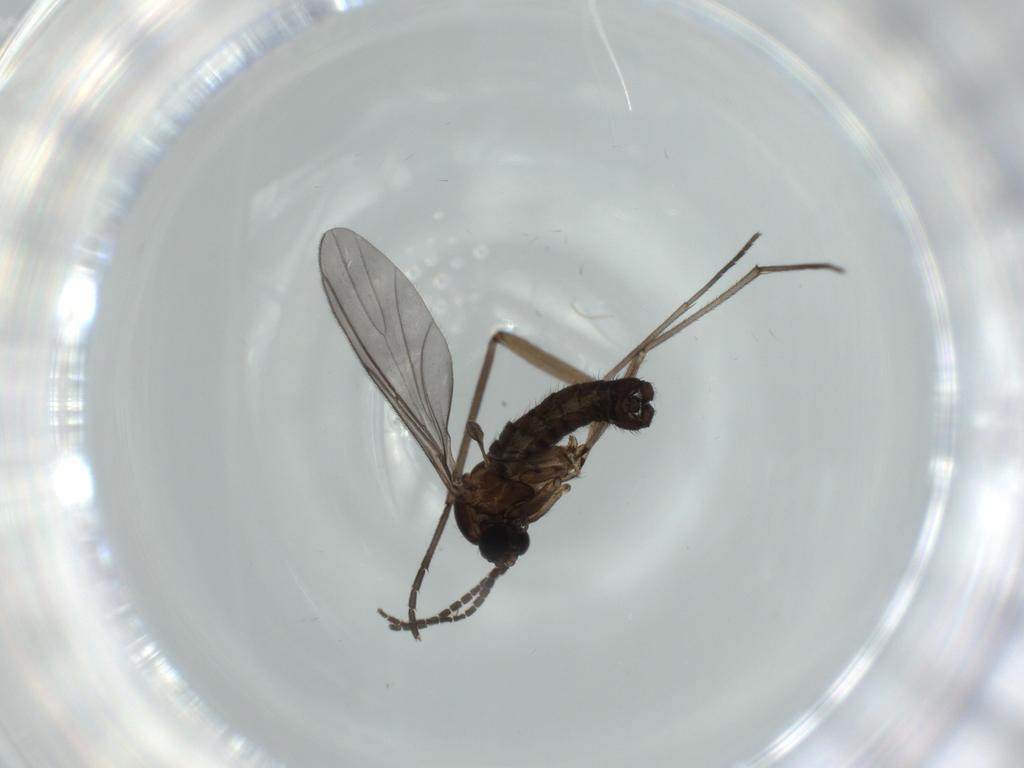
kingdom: Animalia
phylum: Arthropoda
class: Insecta
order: Diptera
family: Sciaridae
